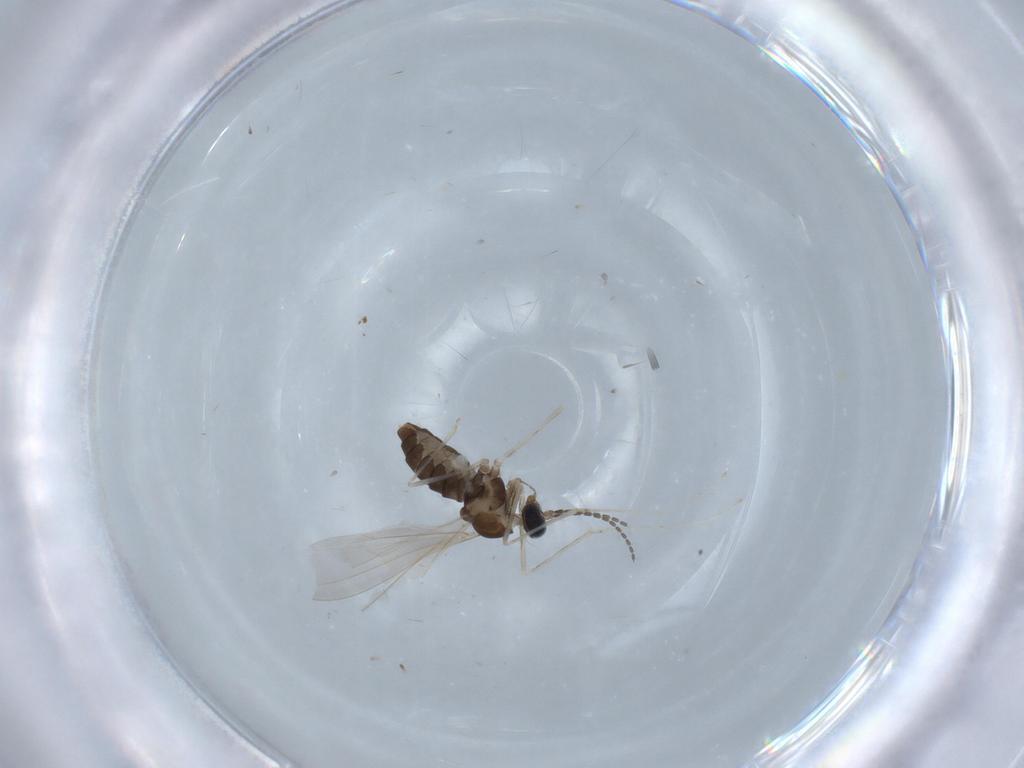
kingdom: Animalia
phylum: Arthropoda
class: Insecta
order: Diptera
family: Cecidomyiidae
